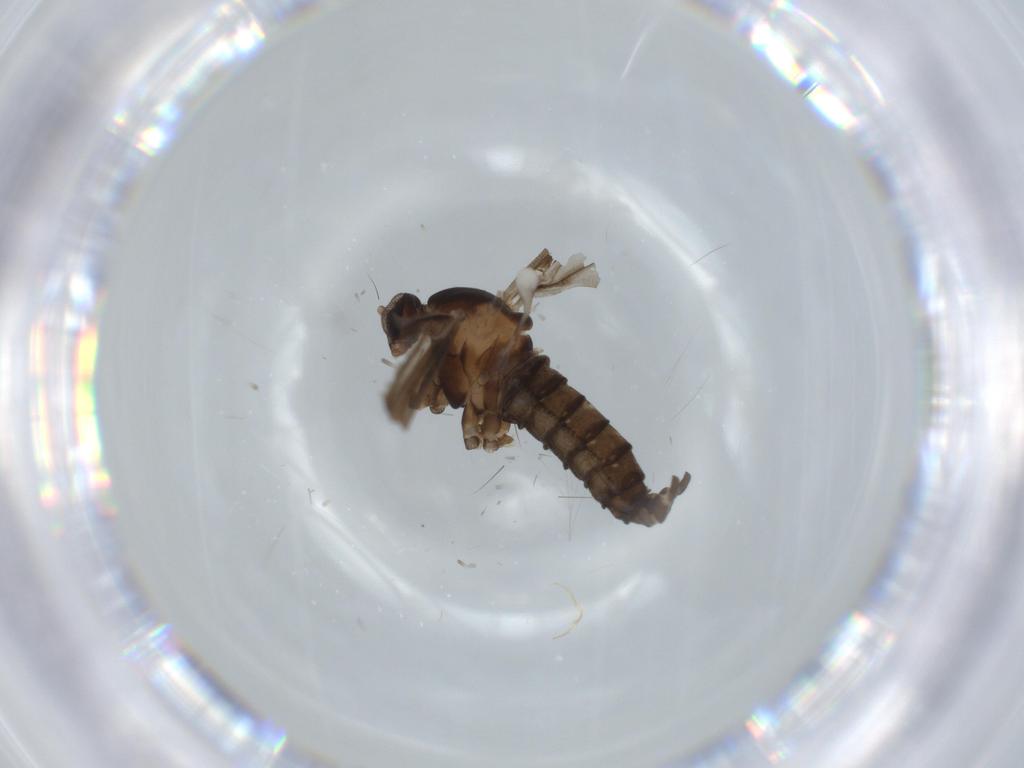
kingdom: Animalia
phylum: Arthropoda
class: Insecta
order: Diptera
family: Cecidomyiidae
